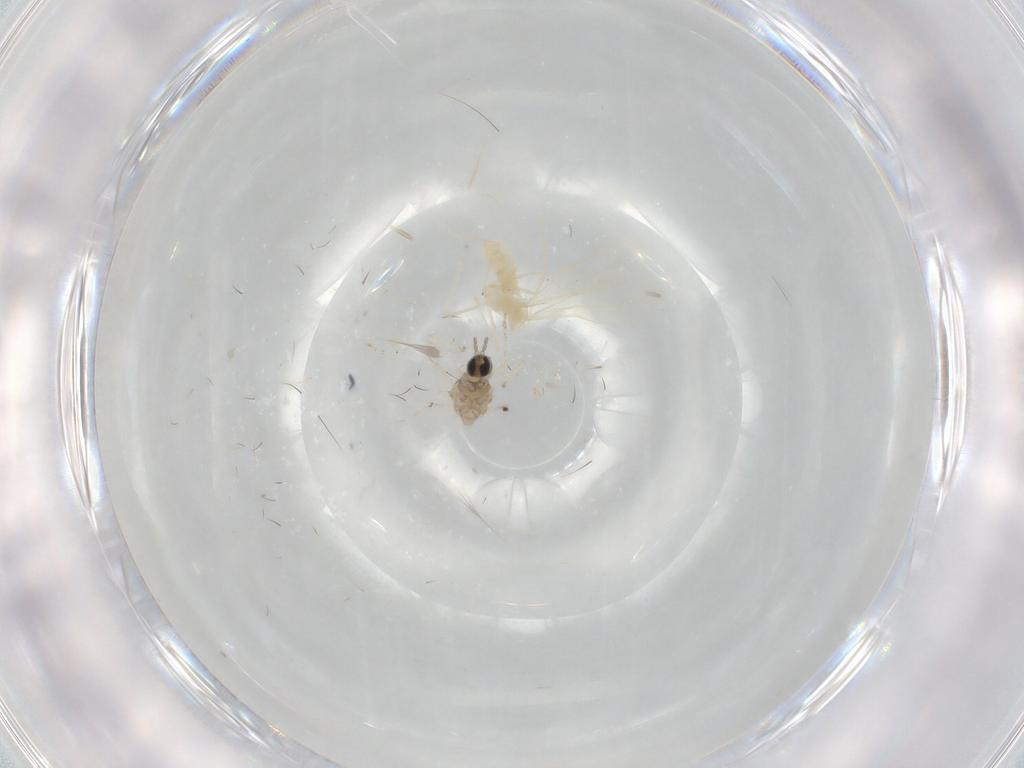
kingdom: Animalia
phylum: Arthropoda
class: Insecta
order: Diptera
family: Cecidomyiidae
